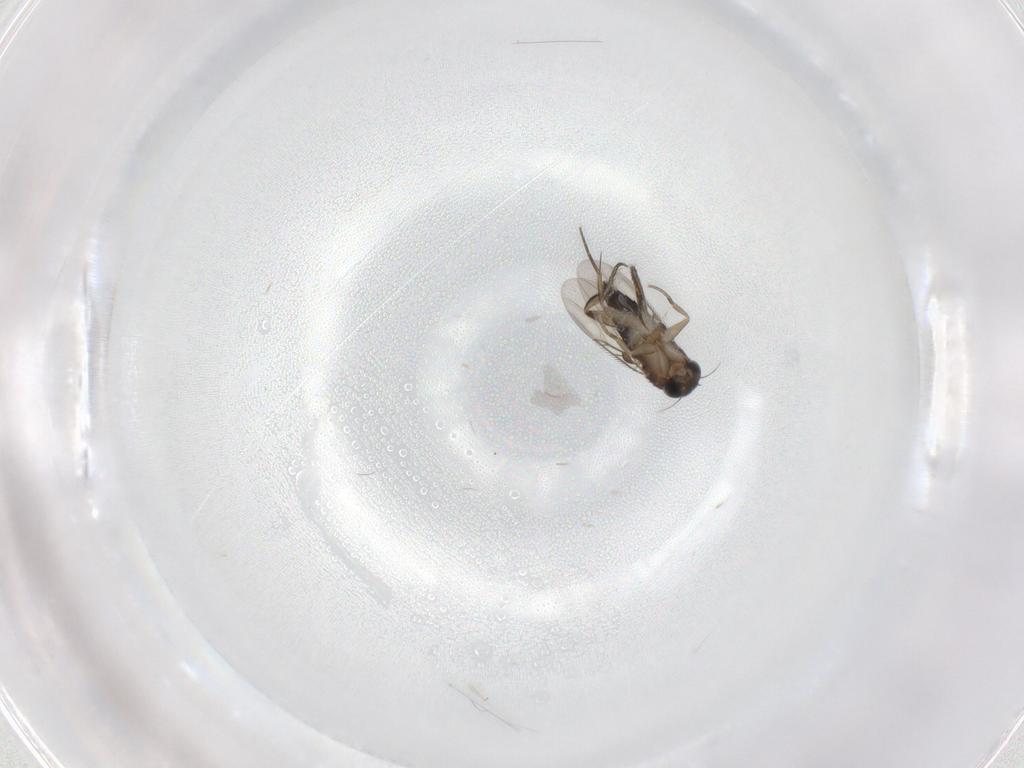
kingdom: Animalia
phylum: Arthropoda
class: Insecta
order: Diptera
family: Phoridae
